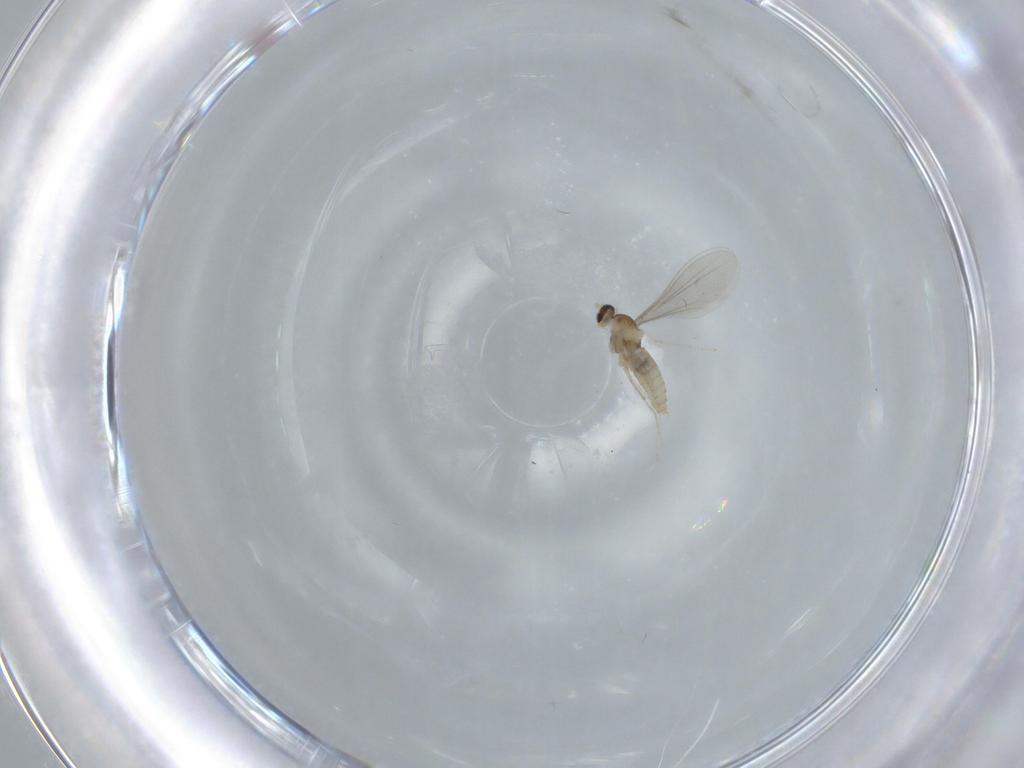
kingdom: Animalia
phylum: Arthropoda
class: Insecta
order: Diptera
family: Cecidomyiidae
